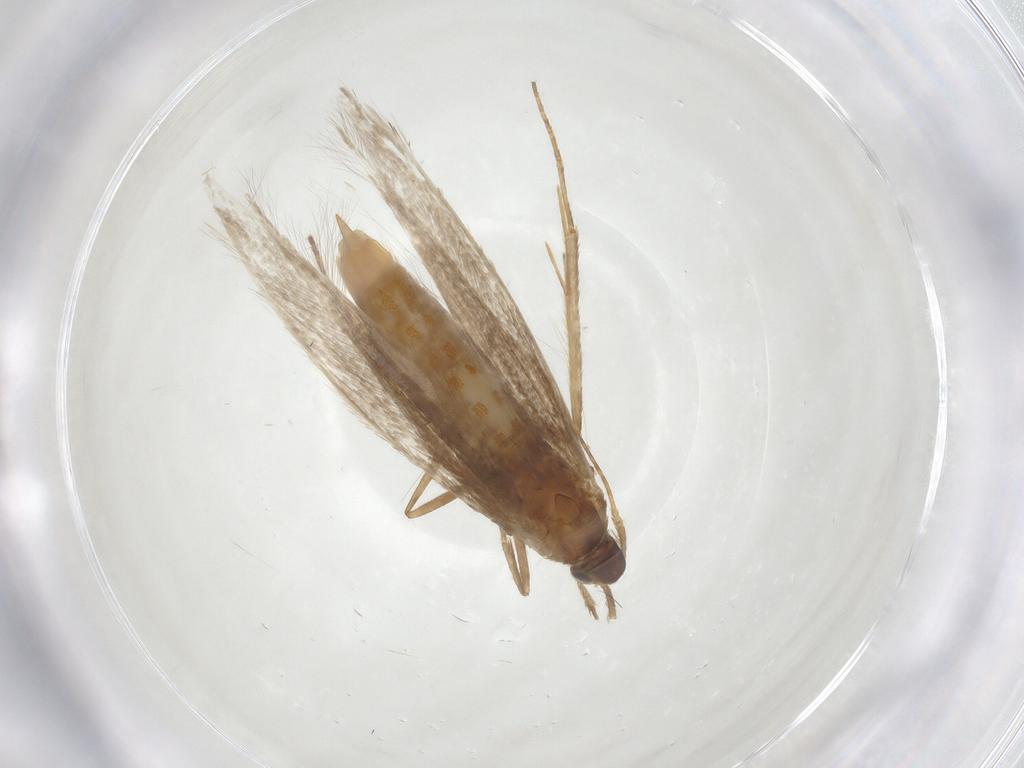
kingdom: Animalia
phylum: Arthropoda
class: Insecta
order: Lepidoptera
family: Coleophoridae
